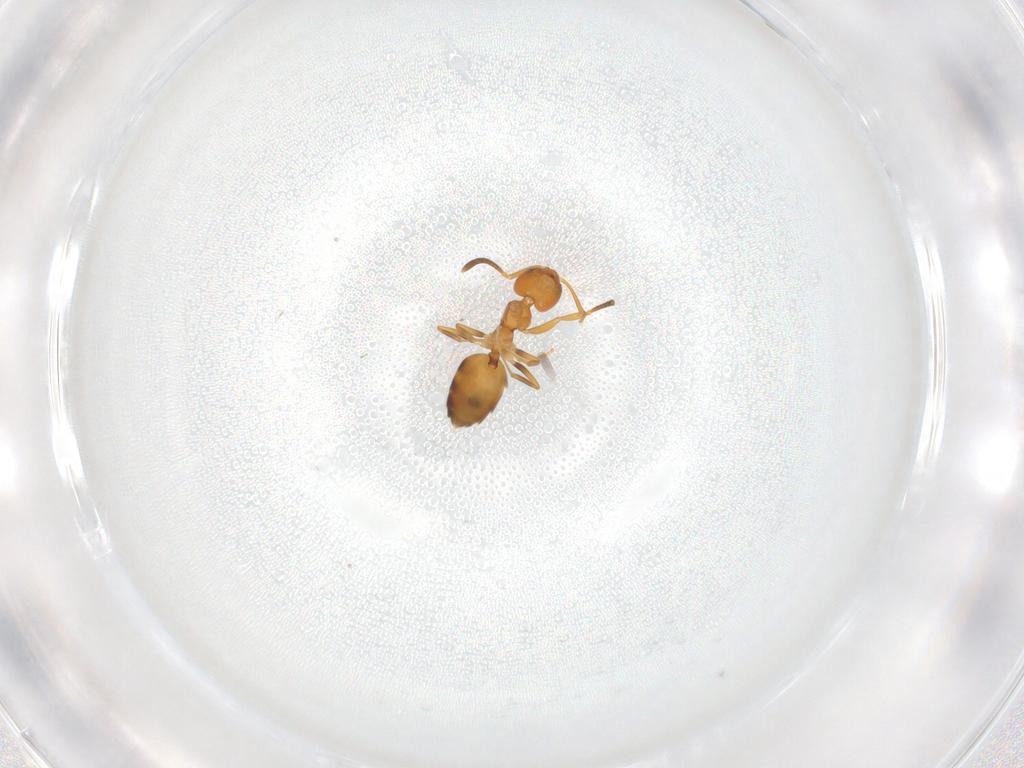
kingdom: Animalia
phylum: Arthropoda
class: Insecta
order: Hymenoptera
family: Formicidae
